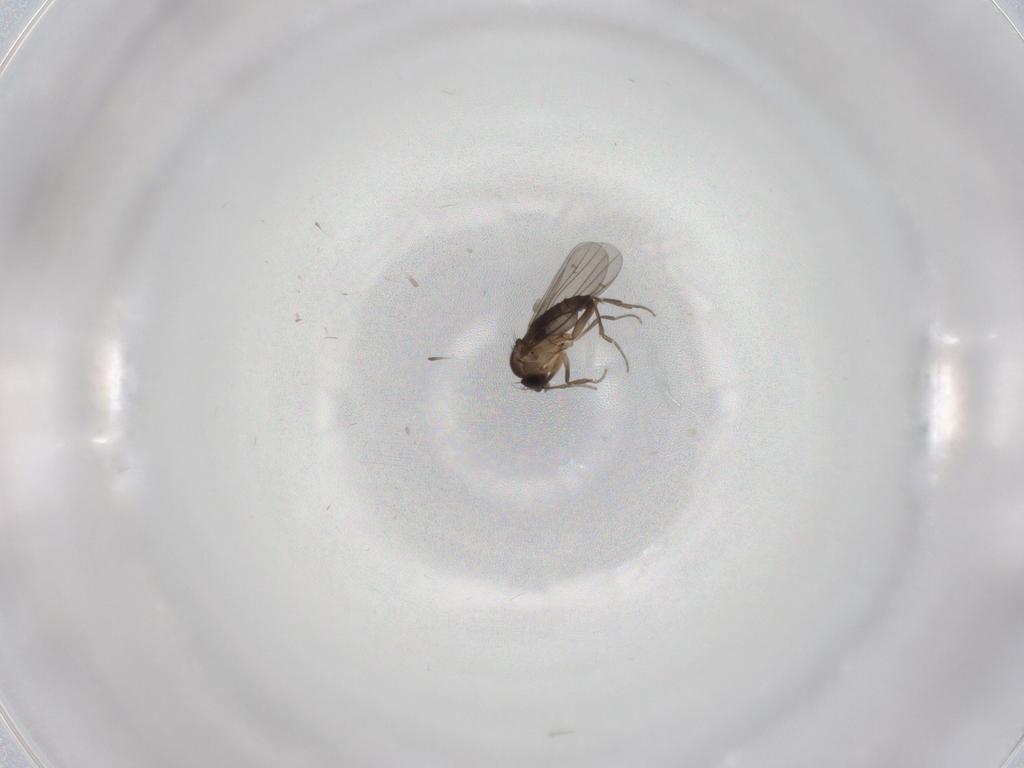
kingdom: Animalia
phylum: Arthropoda
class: Insecta
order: Diptera
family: Phoridae
